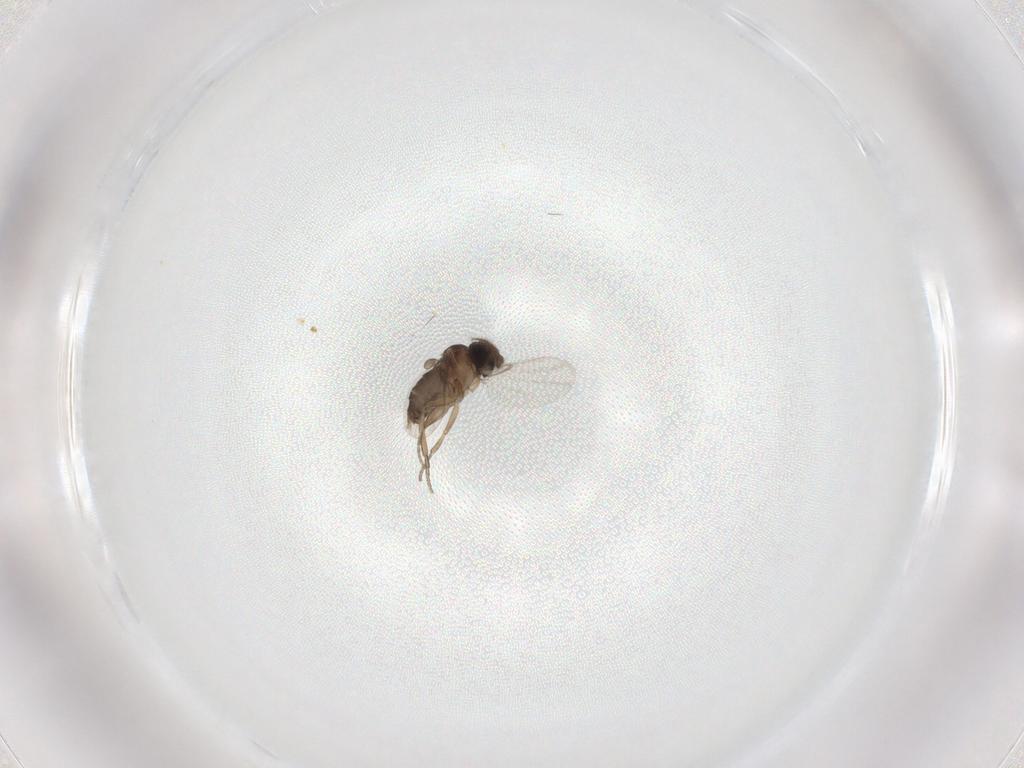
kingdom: Animalia
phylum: Arthropoda
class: Insecta
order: Diptera
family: Phoridae
